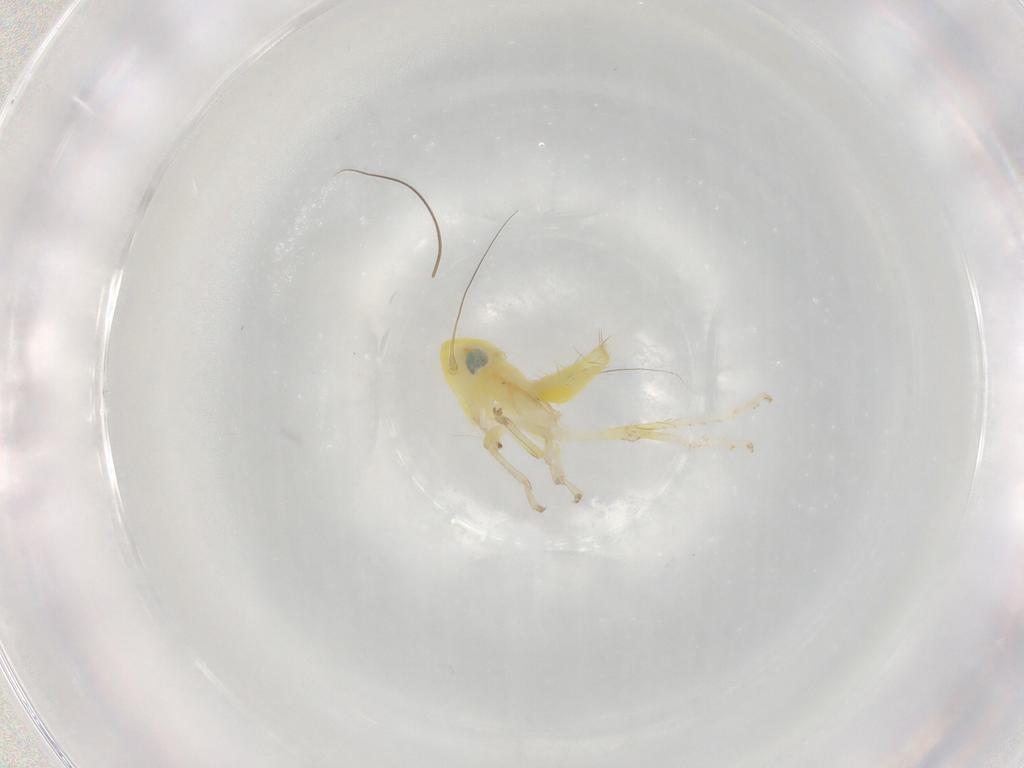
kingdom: Animalia
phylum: Arthropoda
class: Insecta
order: Hemiptera
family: Cicadellidae
